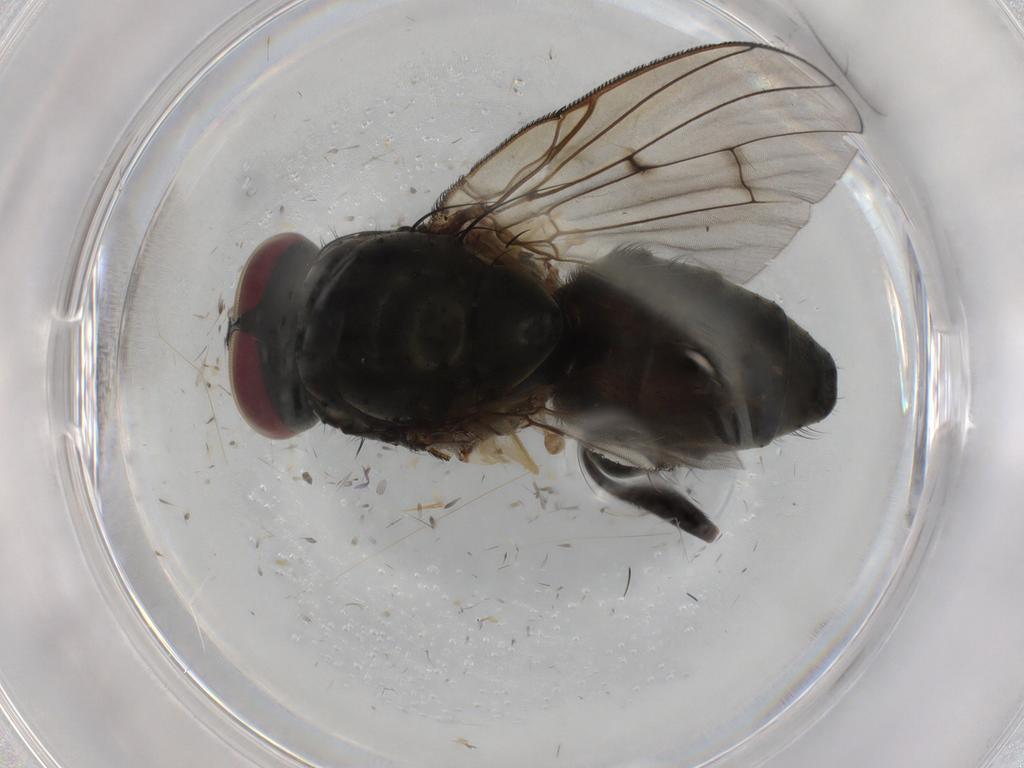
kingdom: Animalia
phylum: Arthropoda
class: Insecta
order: Diptera
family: Muscidae
